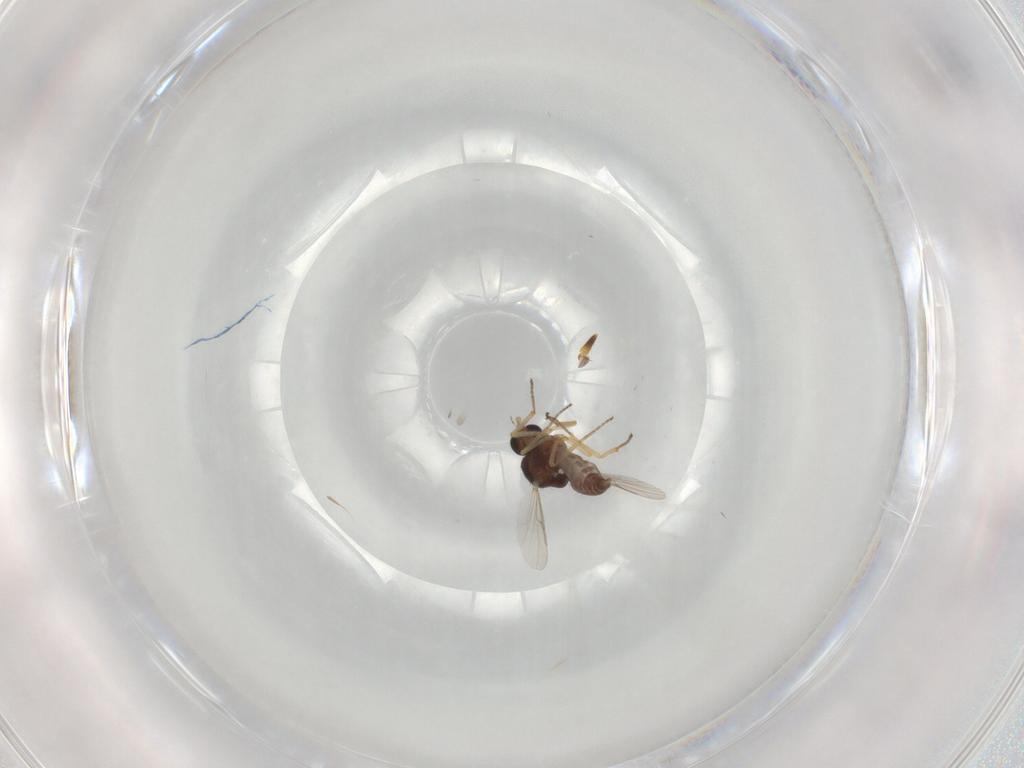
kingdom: Animalia
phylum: Arthropoda
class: Insecta
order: Diptera
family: Ceratopogonidae
